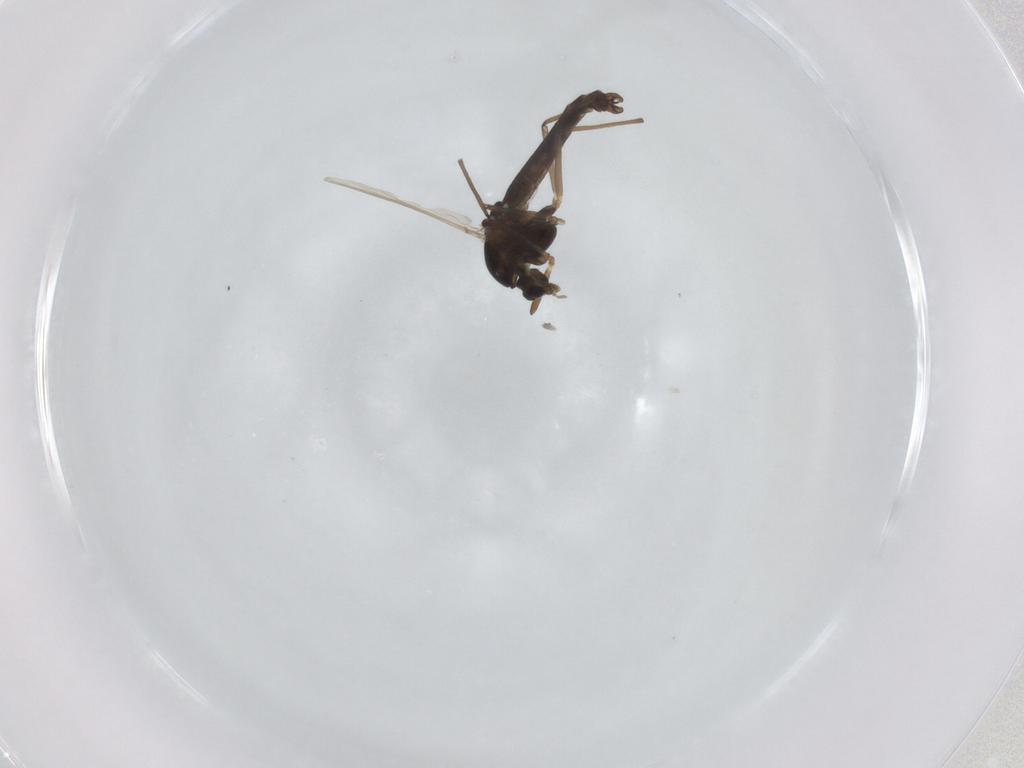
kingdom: Animalia
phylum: Arthropoda
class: Insecta
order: Diptera
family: Chironomidae
